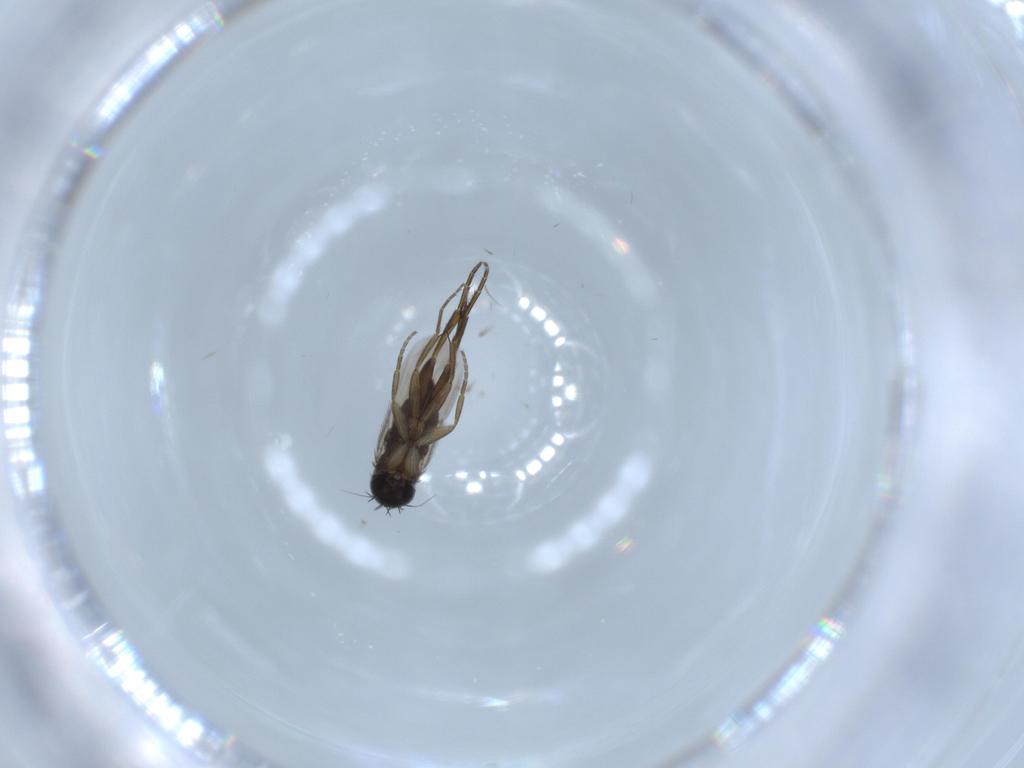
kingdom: Animalia
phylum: Arthropoda
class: Insecta
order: Diptera
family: Phoridae
